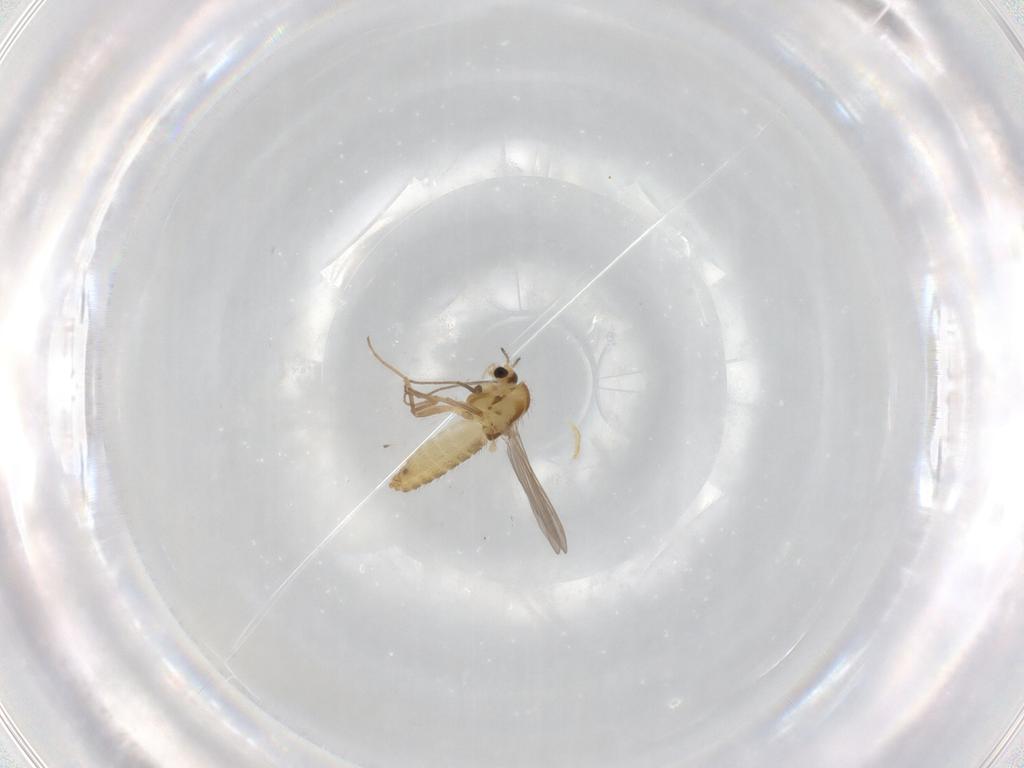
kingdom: Animalia
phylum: Arthropoda
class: Insecta
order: Diptera
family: Chironomidae
